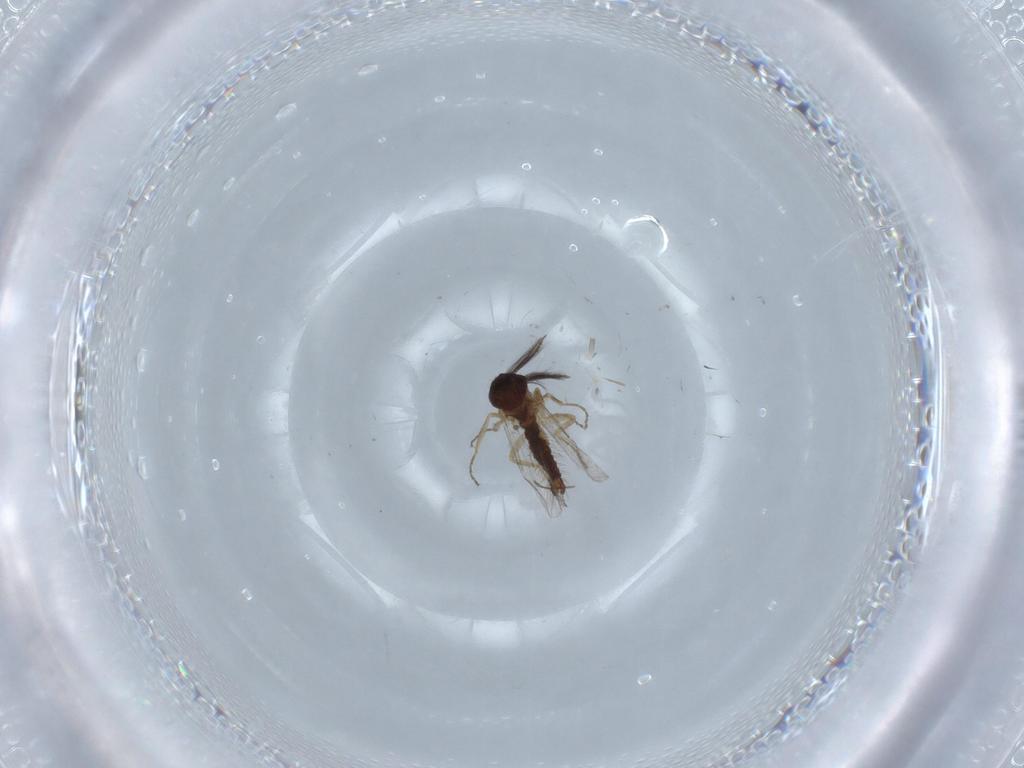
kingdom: Animalia
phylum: Arthropoda
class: Insecta
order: Diptera
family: Ceratopogonidae
